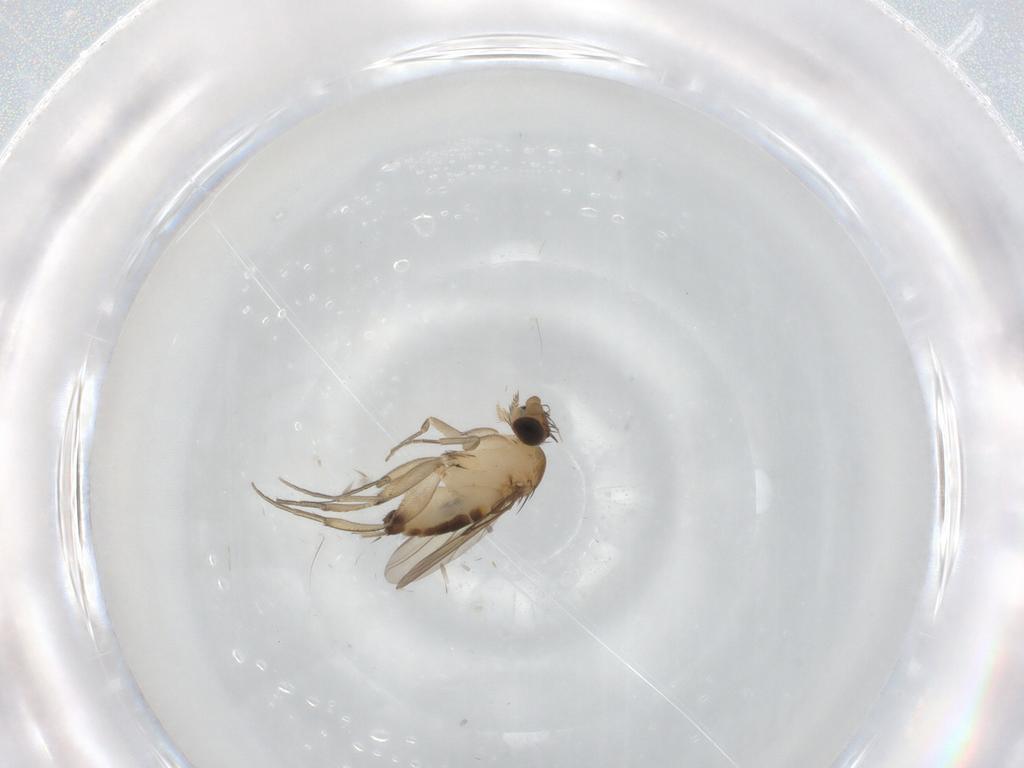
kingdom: Animalia
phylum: Arthropoda
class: Insecta
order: Diptera
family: Phoridae
